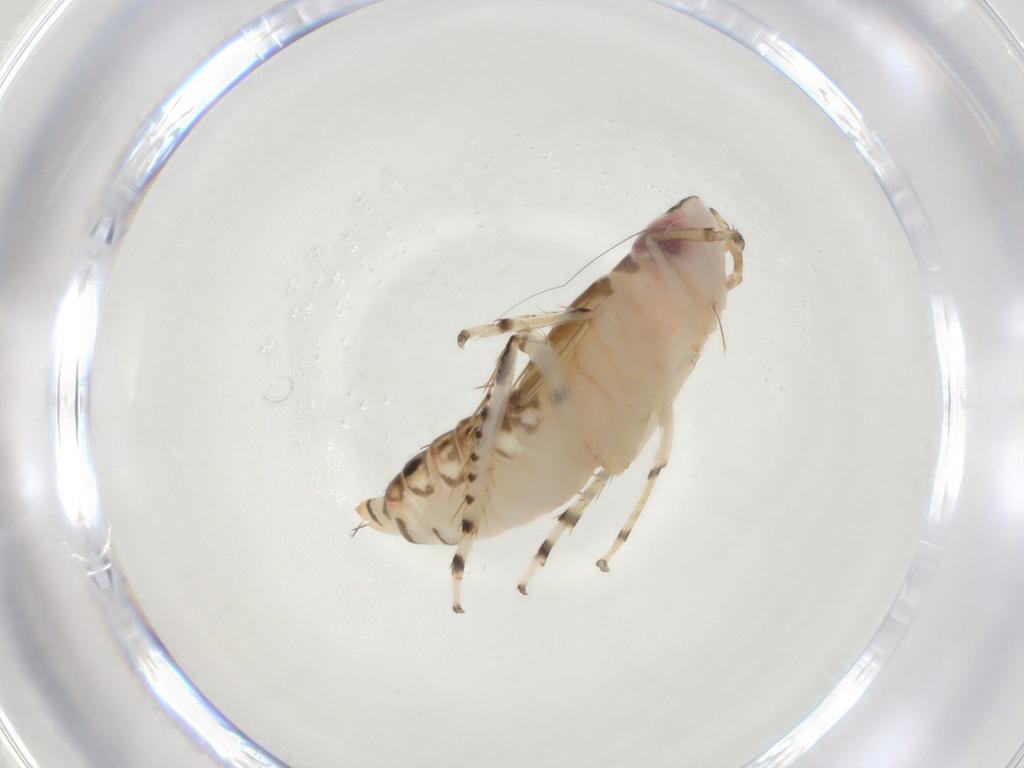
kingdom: Animalia
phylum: Arthropoda
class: Insecta
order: Hemiptera
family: Cicadellidae
